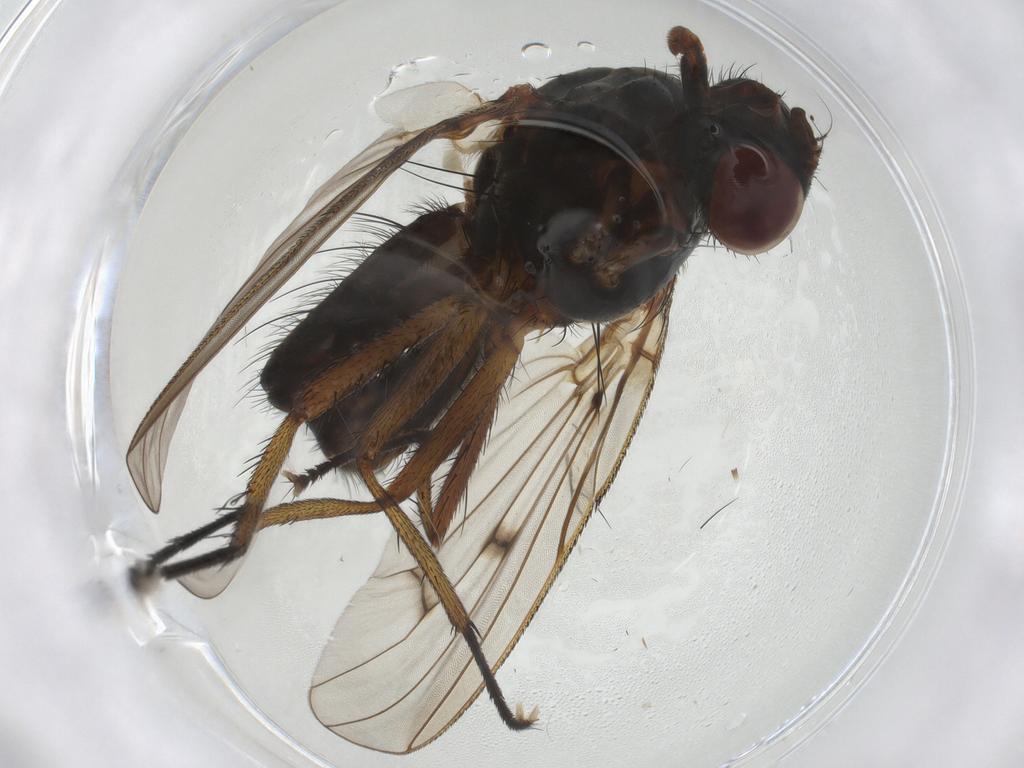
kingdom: Animalia
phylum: Arthropoda
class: Insecta
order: Diptera
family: Anthomyiidae
